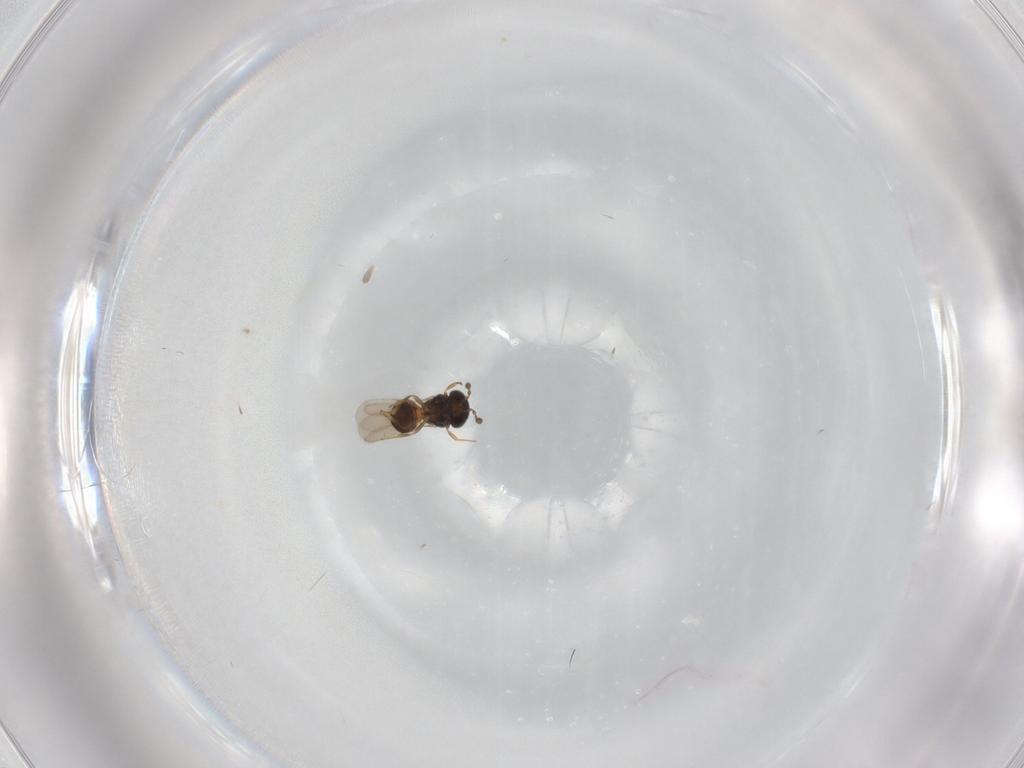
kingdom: Animalia
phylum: Arthropoda
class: Insecta
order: Hymenoptera
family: Scelionidae
